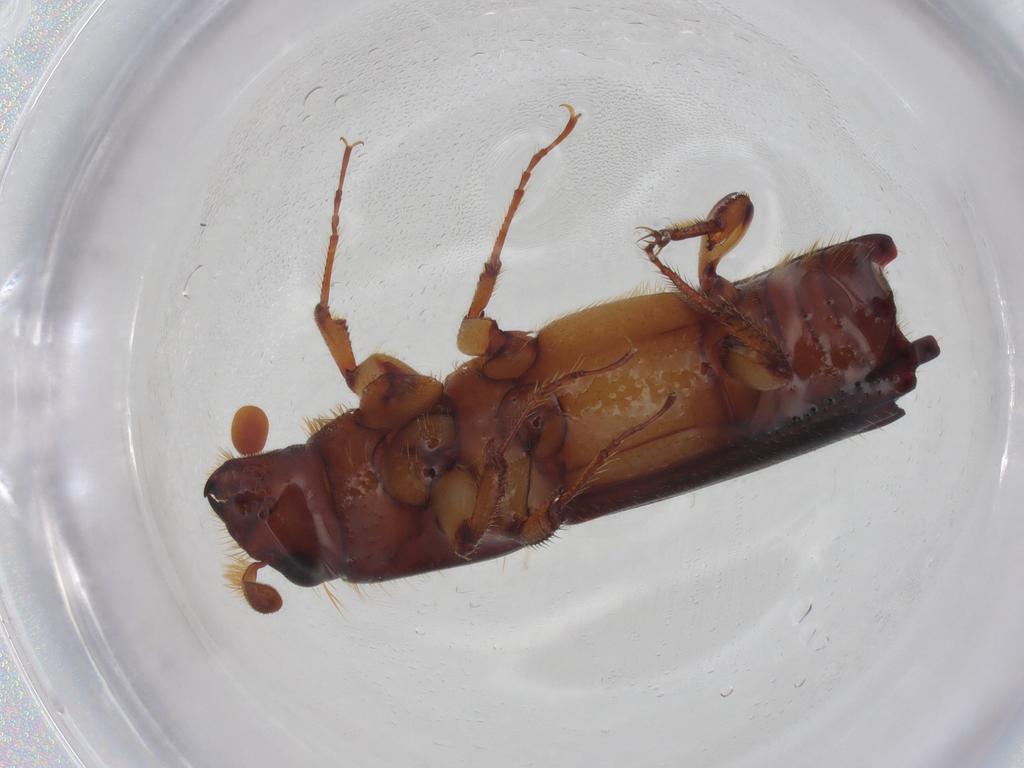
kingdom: Animalia
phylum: Arthropoda
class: Insecta
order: Coleoptera
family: Curculionidae
